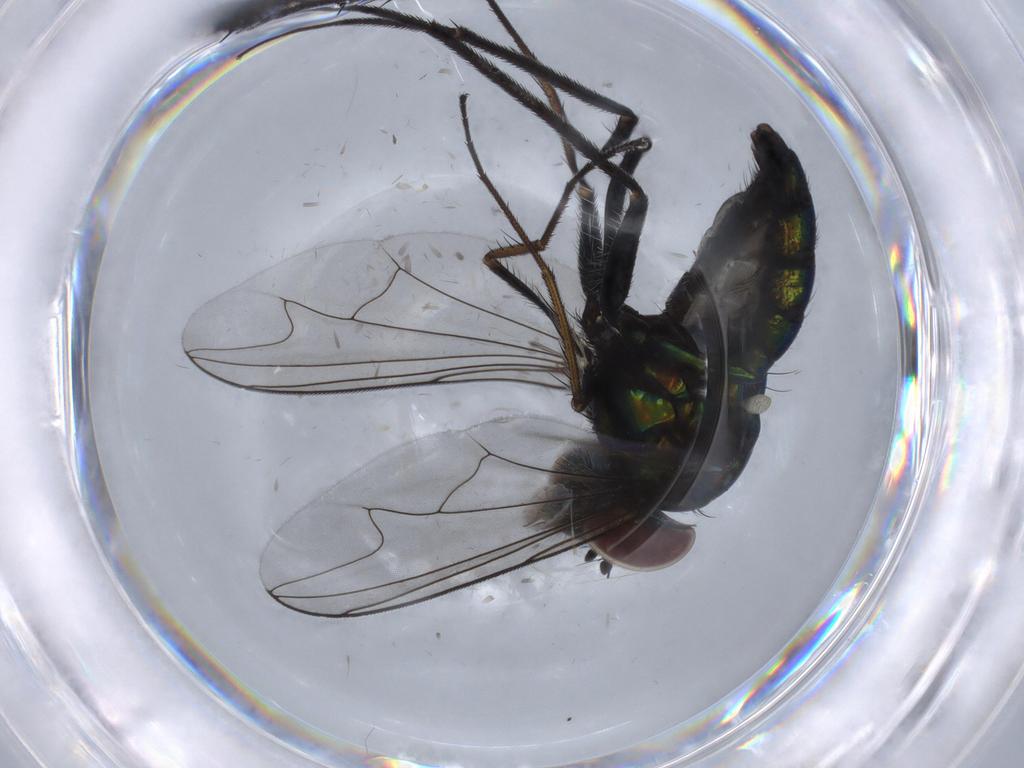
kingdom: Animalia
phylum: Arthropoda
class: Insecta
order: Diptera
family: Dolichopodidae
